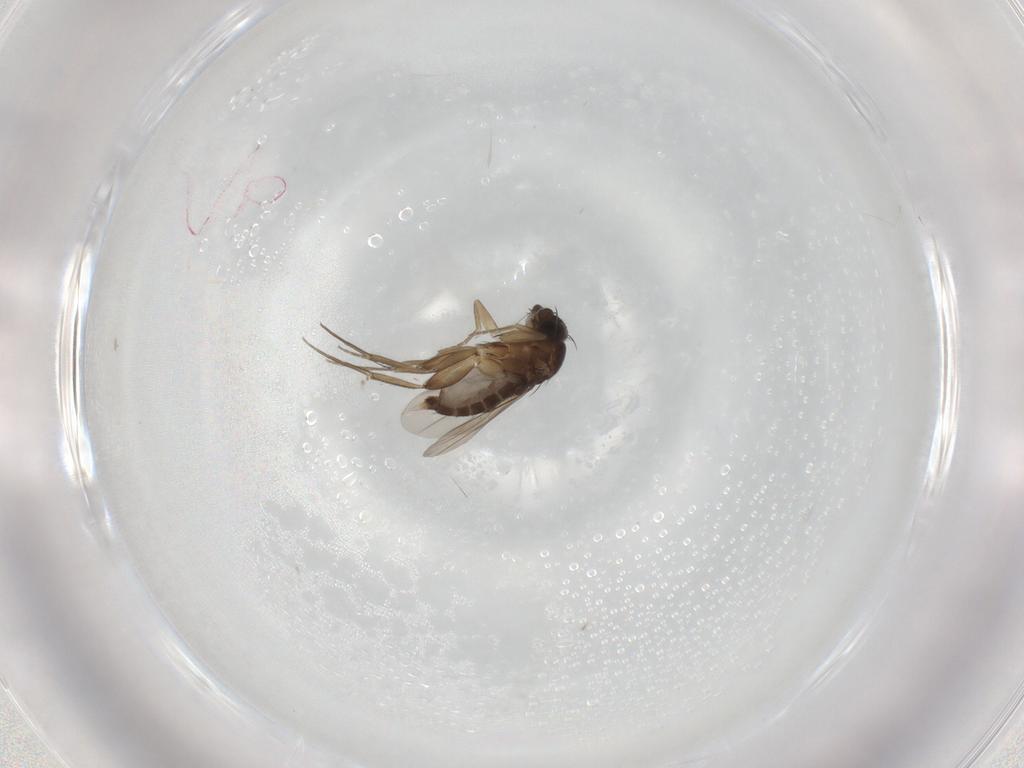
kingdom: Animalia
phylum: Arthropoda
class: Insecta
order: Diptera
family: Phoridae
